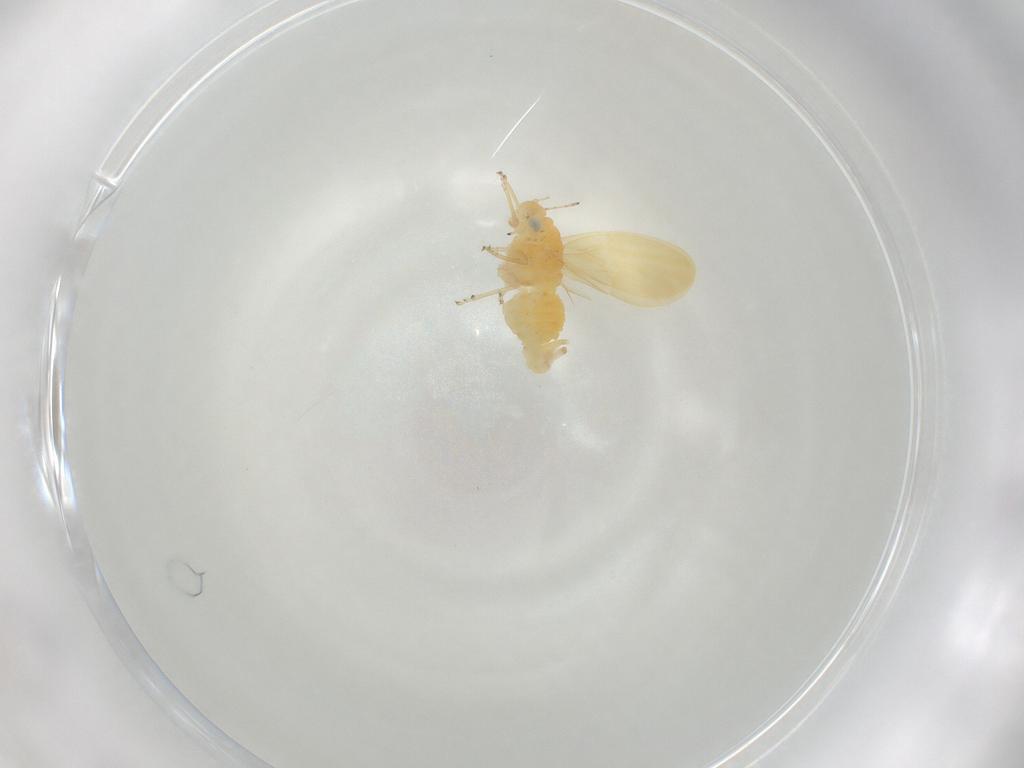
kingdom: Animalia
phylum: Arthropoda
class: Insecta
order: Hemiptera
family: Liviidae
